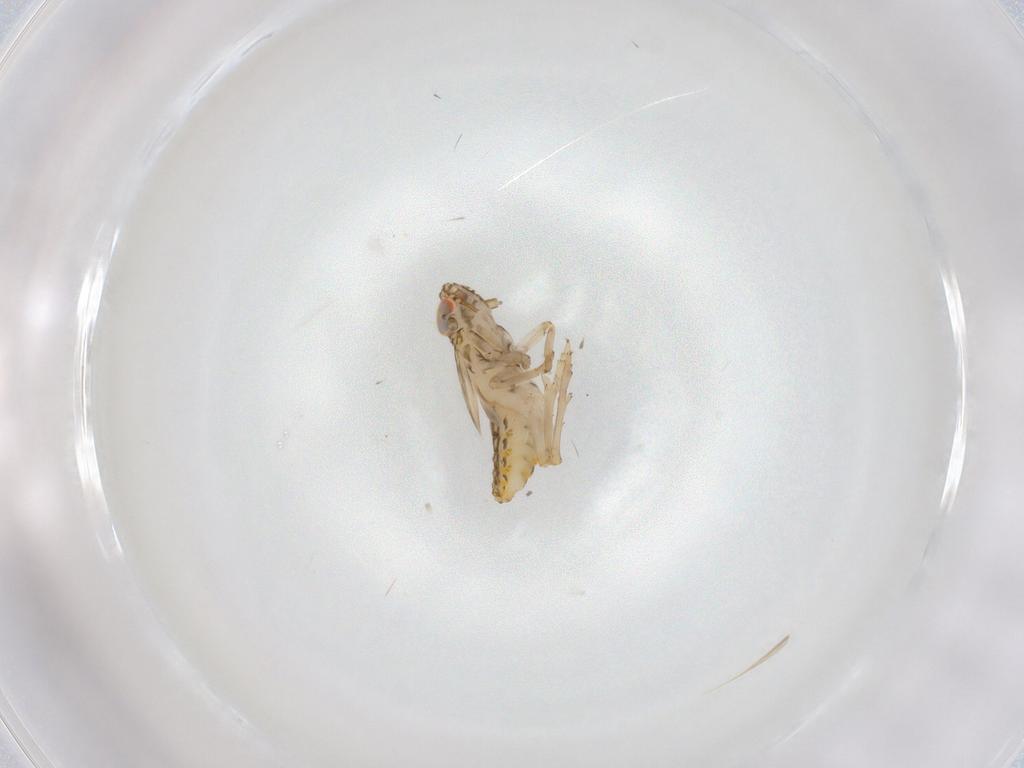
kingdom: Animalia
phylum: Arthropoda
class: Insecta
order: Hemiptera
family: Delphacidae
